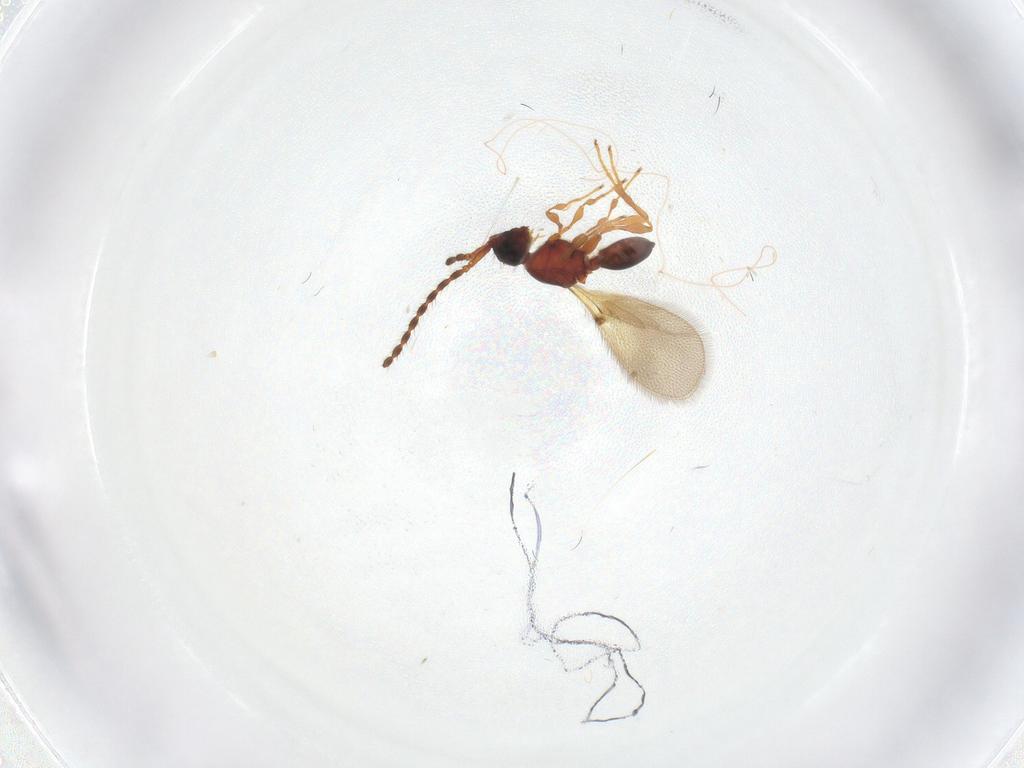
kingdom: Animalia
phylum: Arthropoda
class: Insecta
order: Hymenoptera
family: Diapriidae
